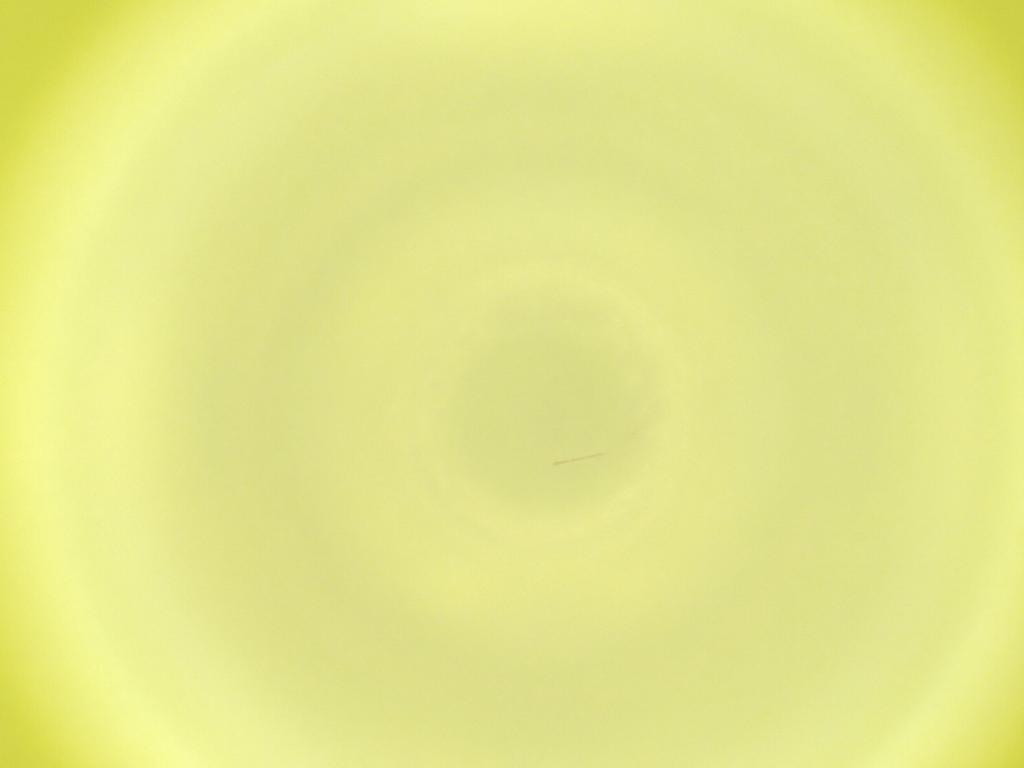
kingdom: Animalia
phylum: Arthropoda
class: Insecta
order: Diptera
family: Cecidomyiidae
